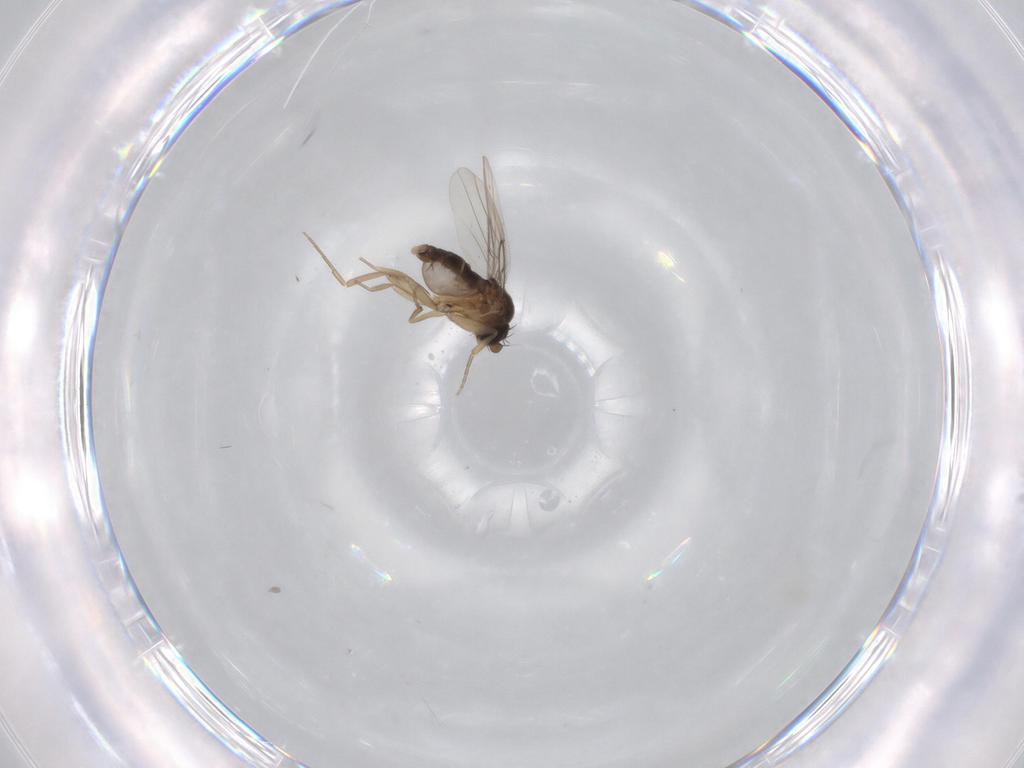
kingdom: Animalia
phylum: Arthropoda
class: Insecta
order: Diptera
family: Phoridae
